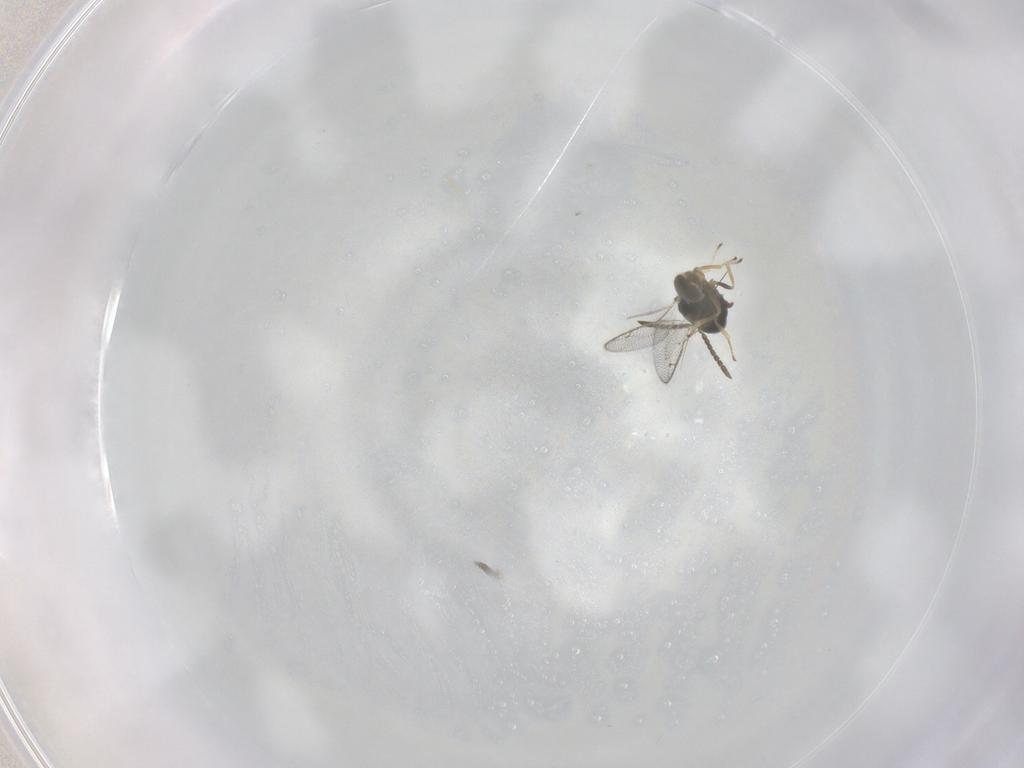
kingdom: Animalia
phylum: Arthropoda
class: Insecta
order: Hymenoptera
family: Pteromalidae
